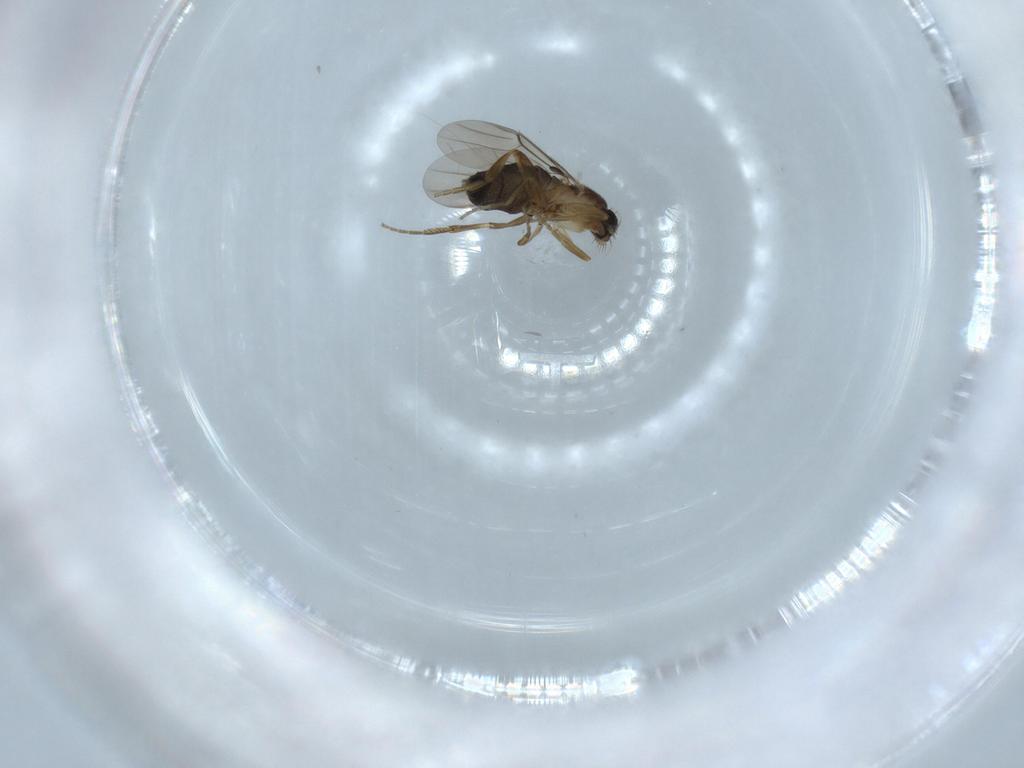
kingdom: Animalia
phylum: Arthropoda
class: Insecta
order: Diptera
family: Phoridae
